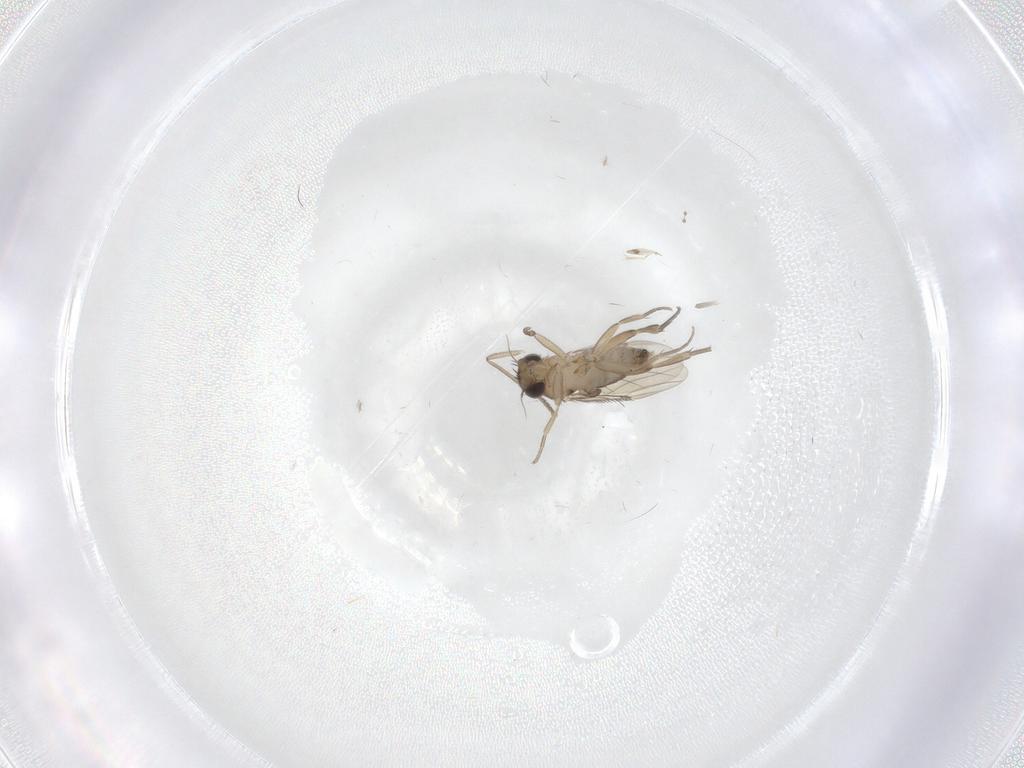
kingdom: Animalia
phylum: Arthropoda
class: Insecta
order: Diptera
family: Phoridae
